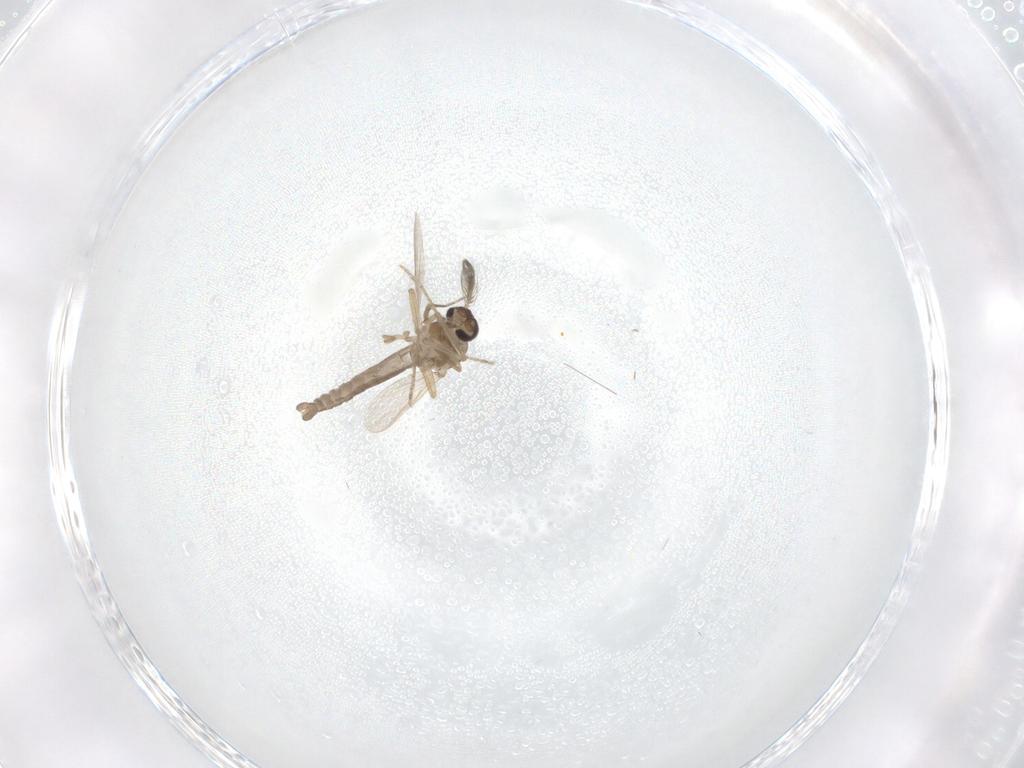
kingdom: Animalia
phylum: Arthropoda
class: Insecta
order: Diptera
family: Ceratopogonidae
